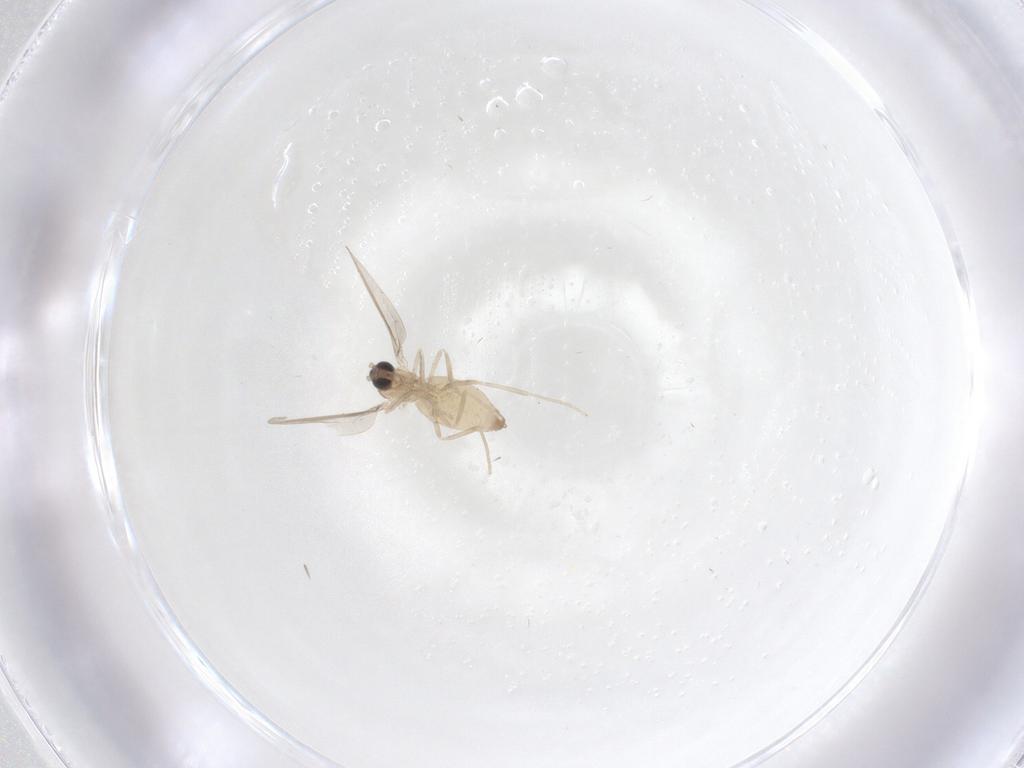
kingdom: Animalia
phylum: Arthropoda
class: Insecta
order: Diptera
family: Cecidomyiidae
